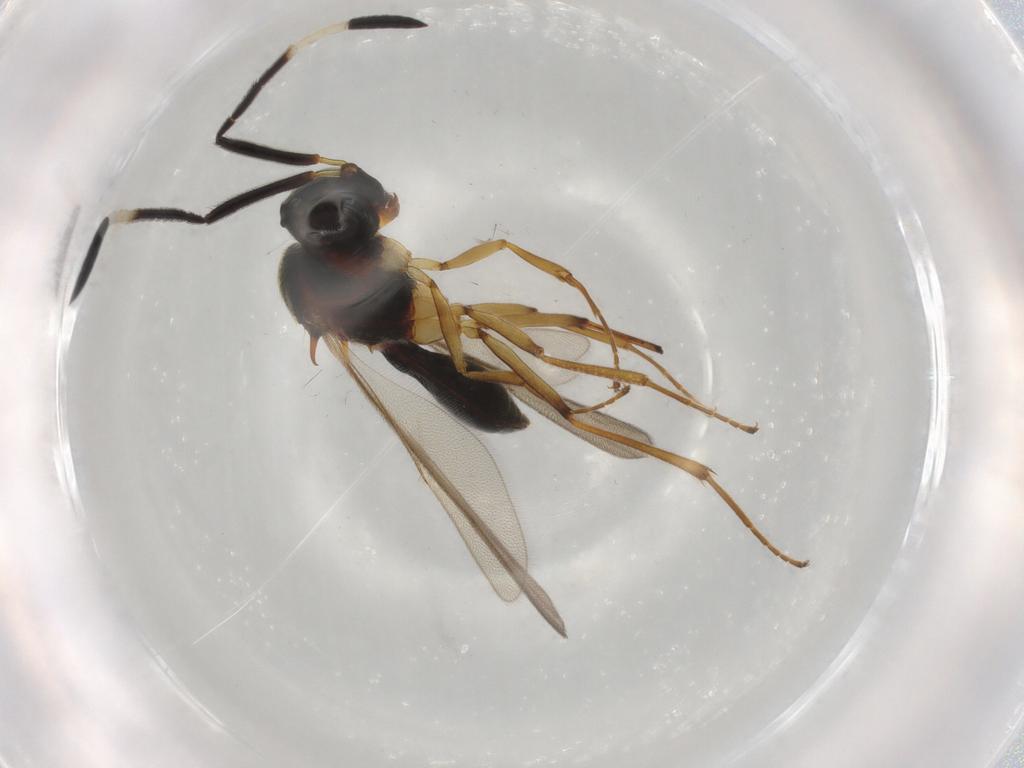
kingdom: Animalia
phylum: Arthropoda
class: Insecta
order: Hymenoptera
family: Scelionidae
